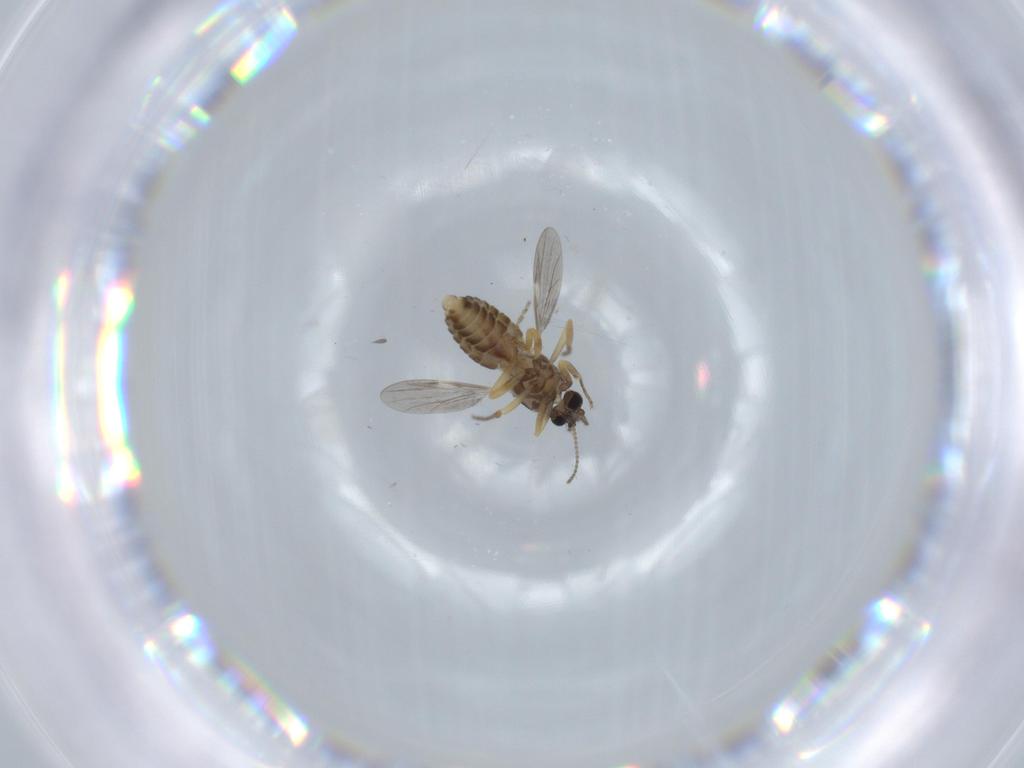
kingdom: Animalia
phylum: Arthropoda
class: Insecta
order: Diptera
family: Ceratopogonidae
